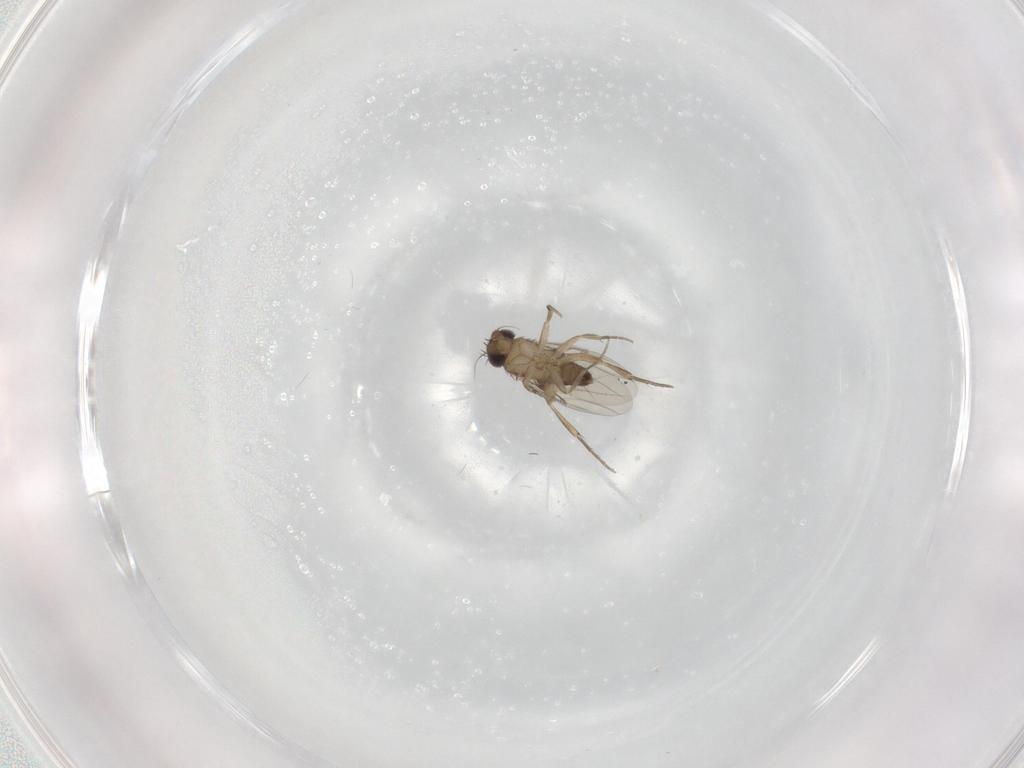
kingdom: Animalia
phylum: Arthropoda
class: Insecta
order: Diptera
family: Phoridae
